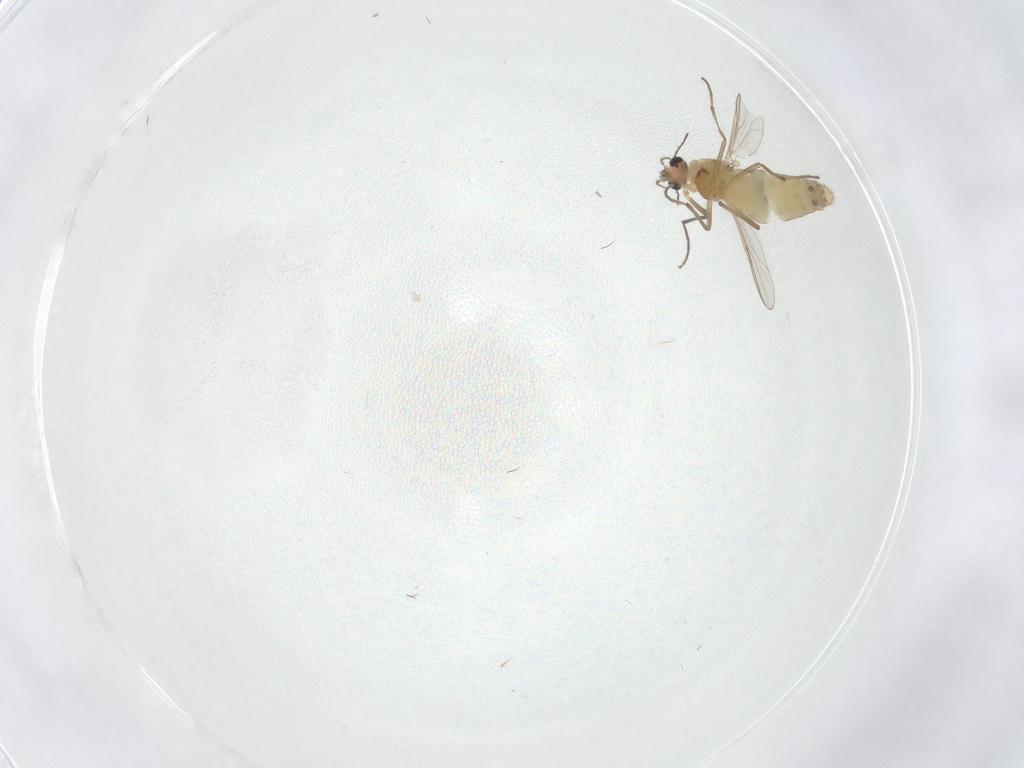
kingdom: Animalia
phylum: Arthropoda
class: Insecta
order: Diptera
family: Chironomidae
